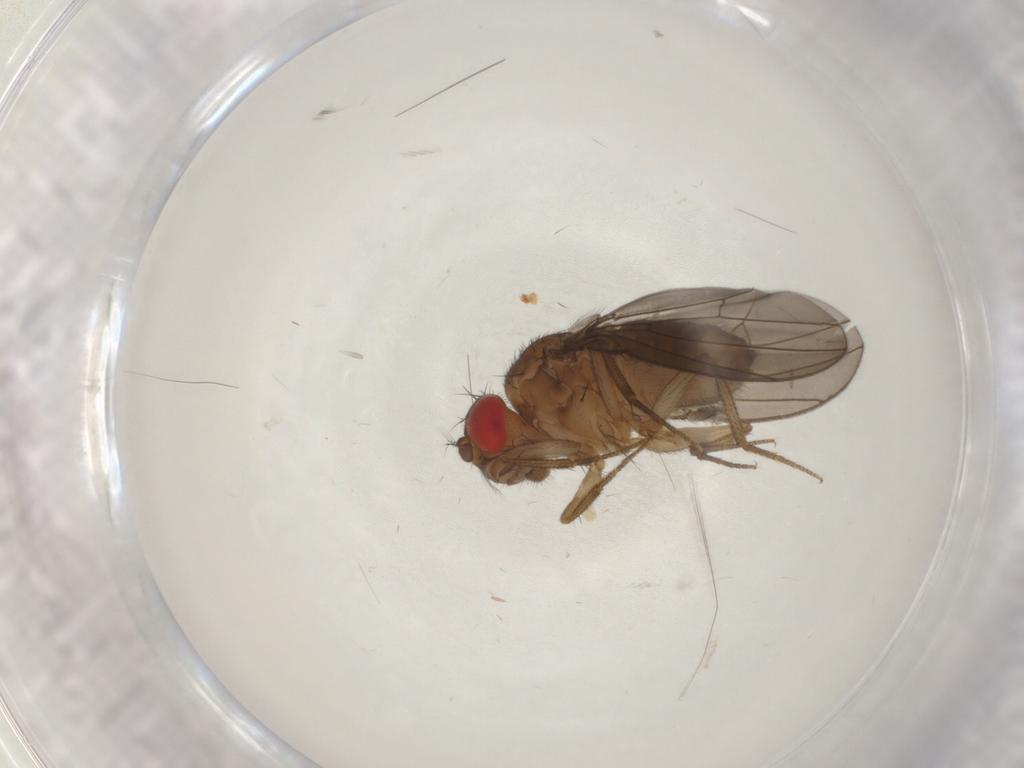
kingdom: Animalia
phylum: Arthropoda
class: Insecta
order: Diptera
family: Drosophilidae
